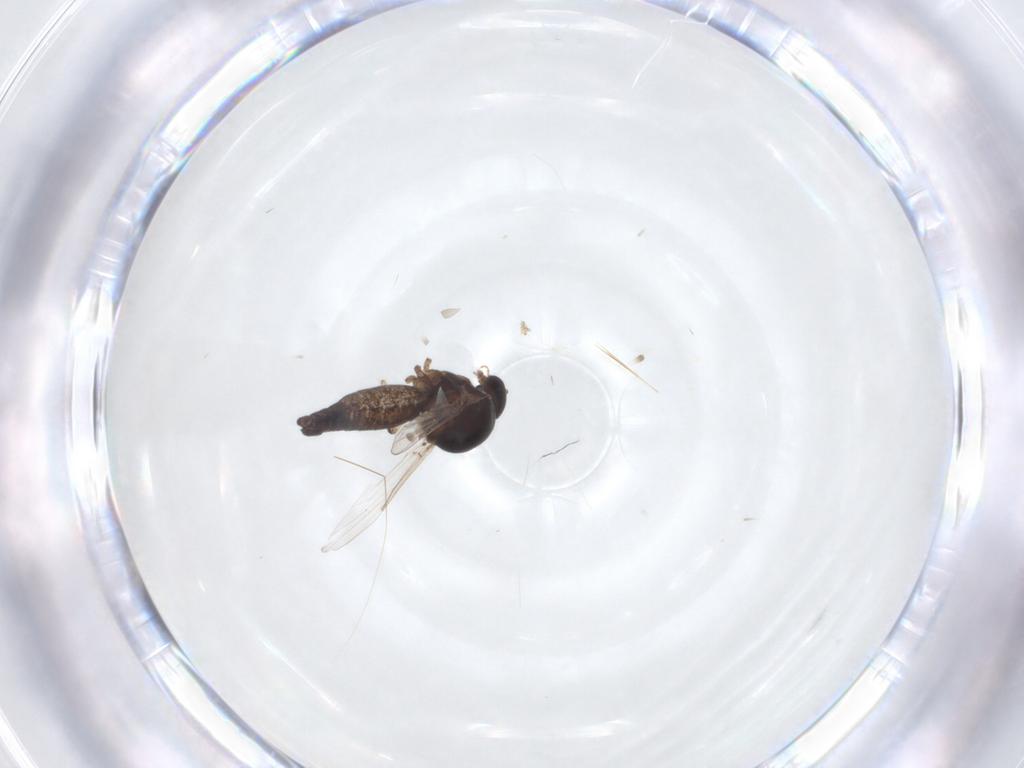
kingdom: Animalia
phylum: Arthropoda
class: Insecta
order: Diptera
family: Ceratopogonidae
